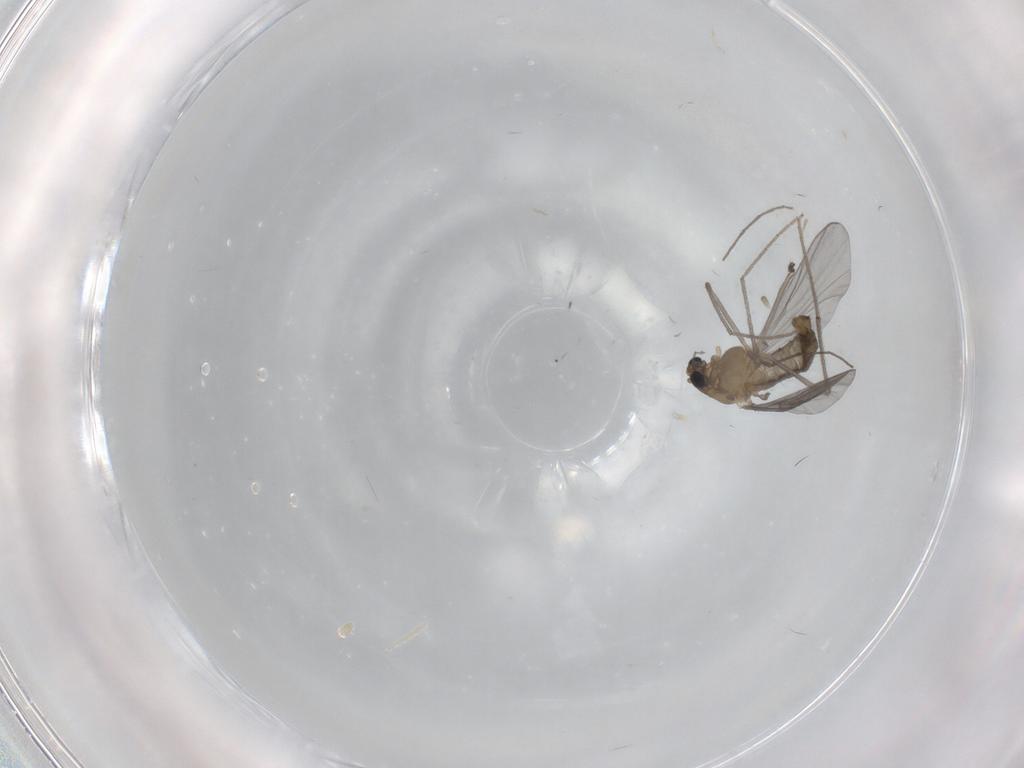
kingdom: Animalia
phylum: Arthropoda
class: Insecta
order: Diptera
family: Chironomidae
